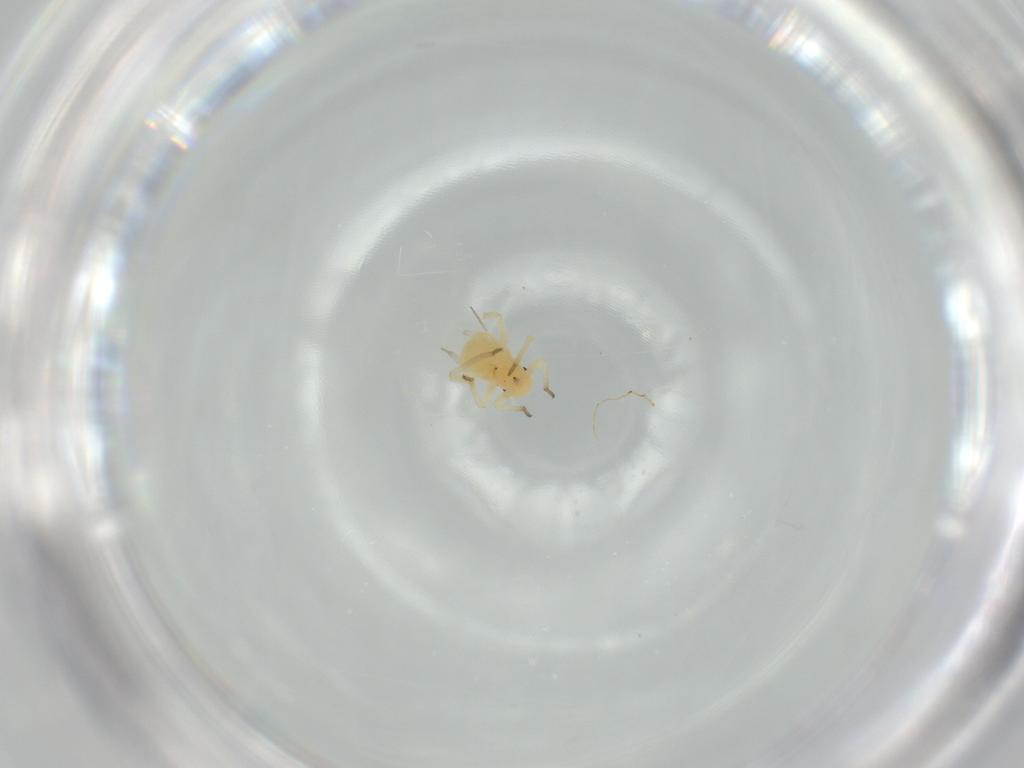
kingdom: Animalia
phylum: Arthropoda
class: Insecta
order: Hemiptera
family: Aphididae
